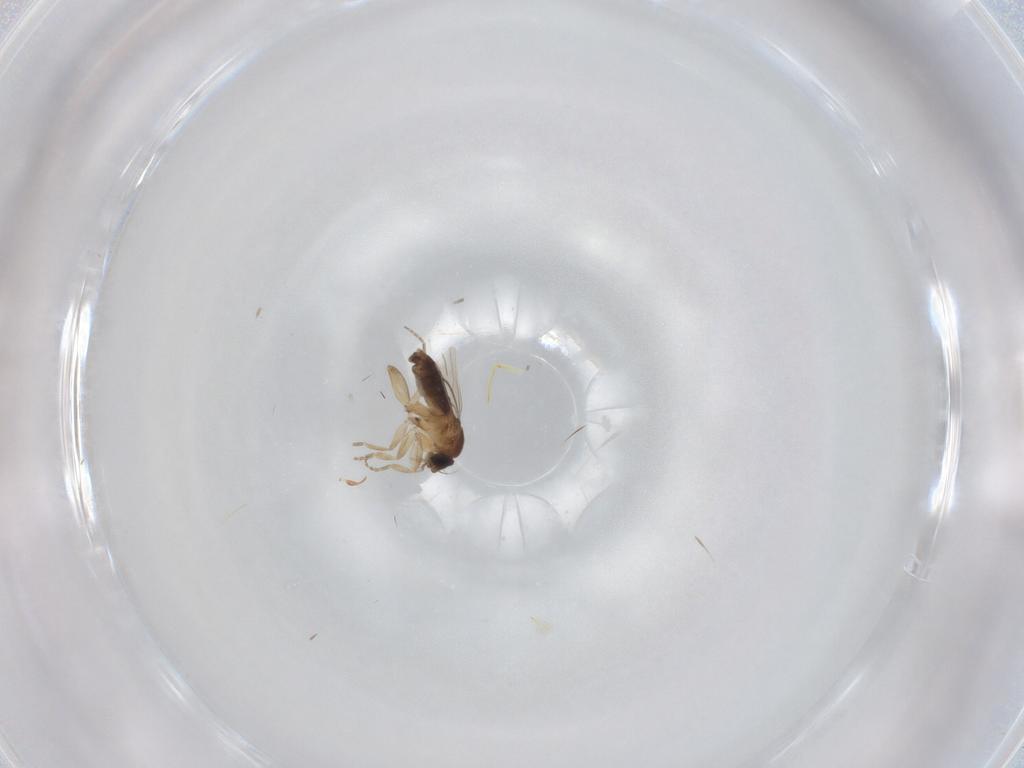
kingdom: Animalia
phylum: Arthropoda
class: Insecta
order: Diptera
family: Phoridae
